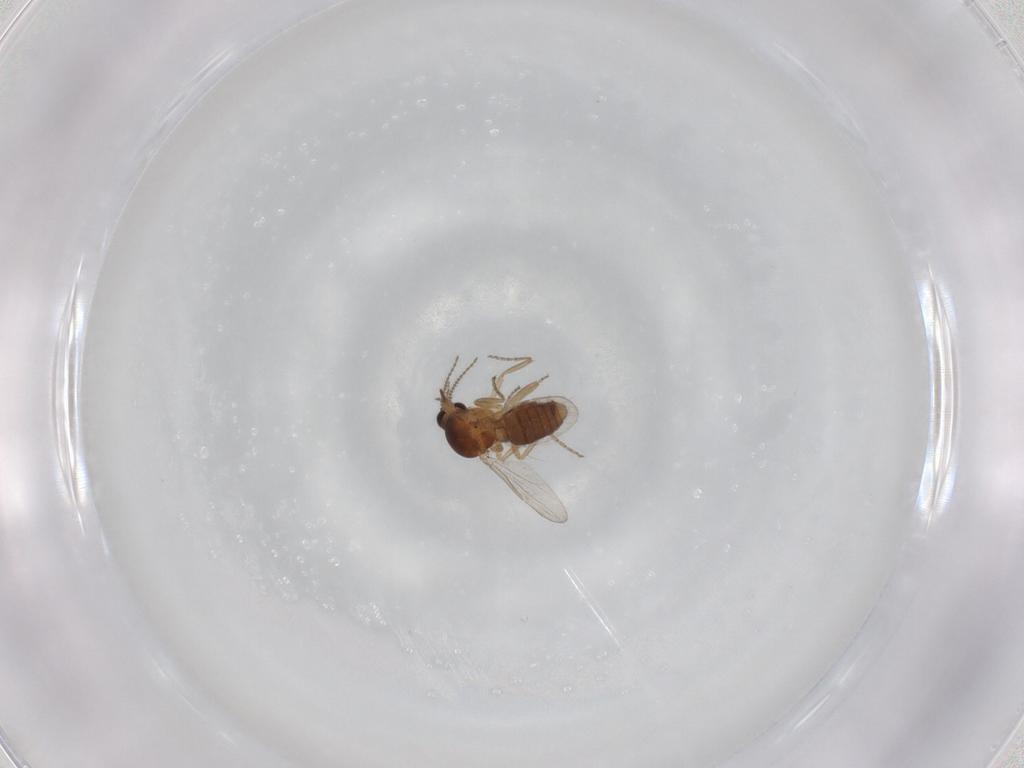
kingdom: Animalia
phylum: Arthropoda
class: Insecta
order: Diptera
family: Ceratopogonidae
